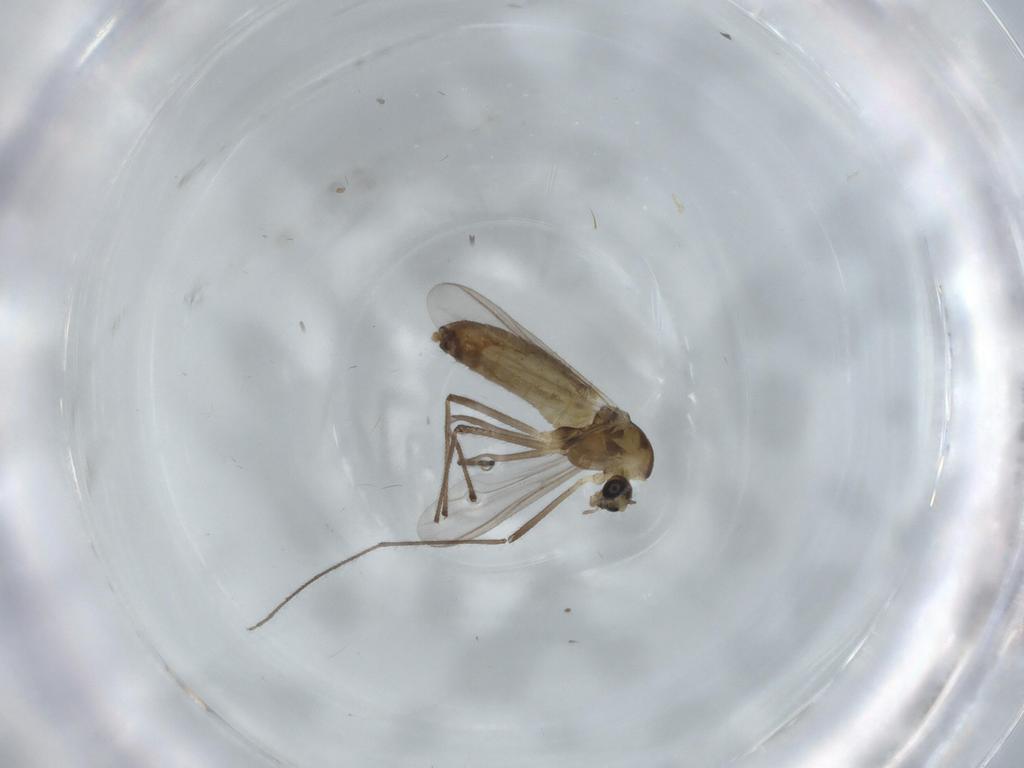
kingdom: Animalia
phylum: Arthropoda
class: Insecta
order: Diptera
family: Chironomidae
